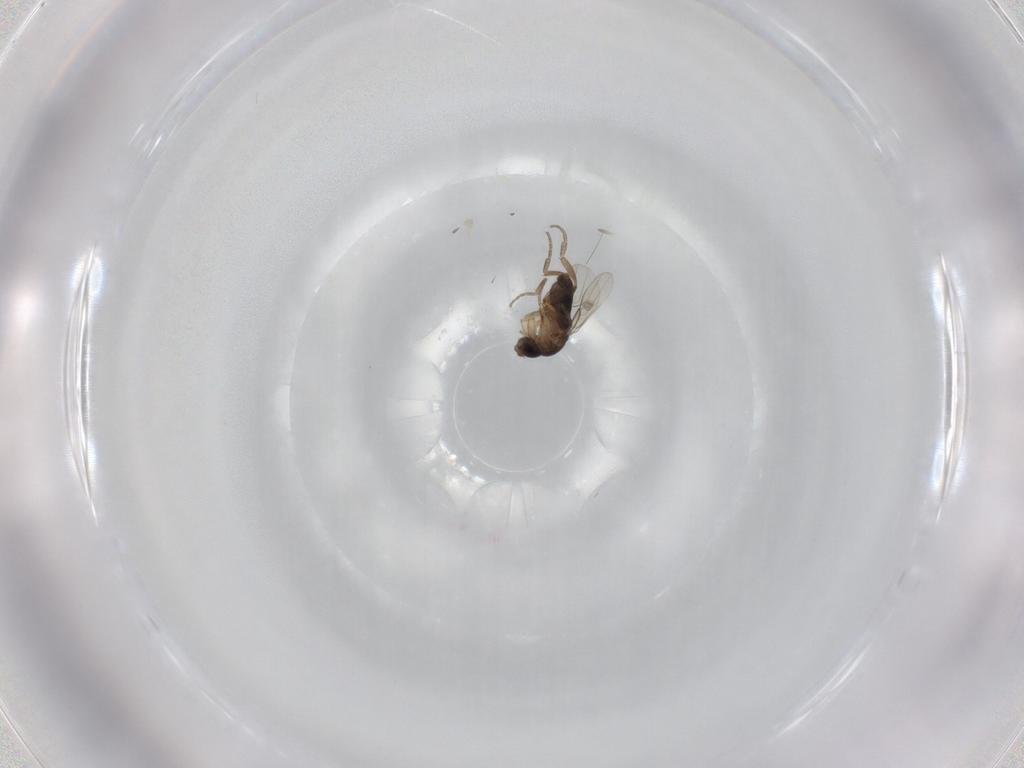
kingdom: Animalia
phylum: Arthropoda
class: Insecta
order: Diptera
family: Phoridae
